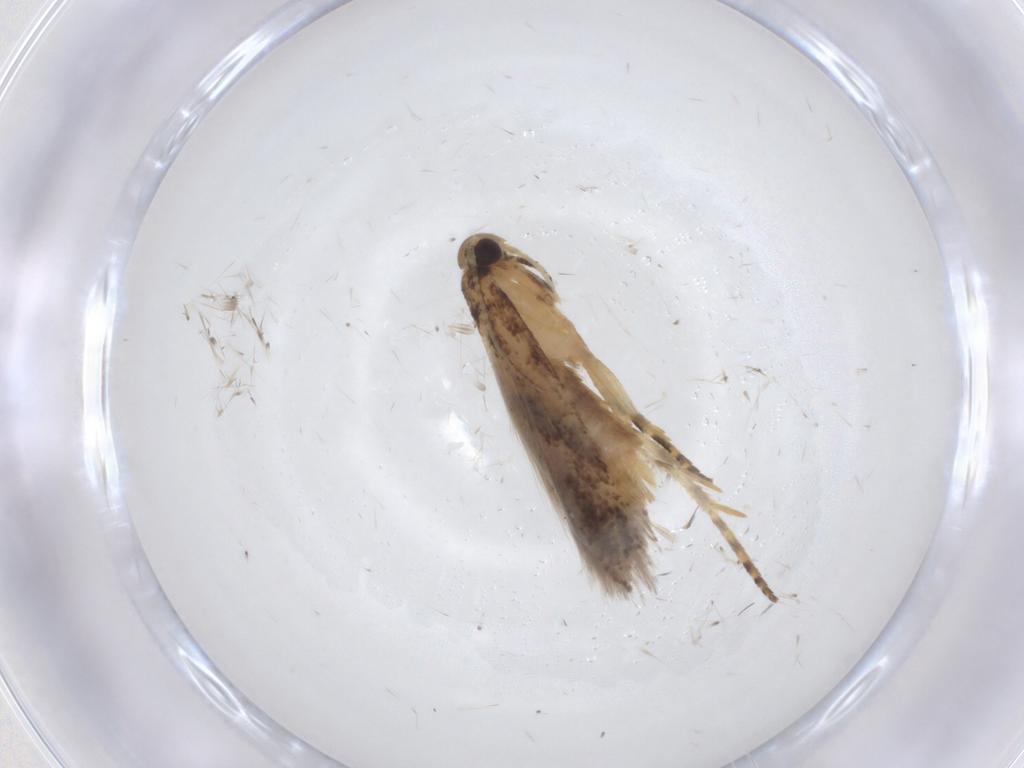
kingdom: Animalia
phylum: Arthropoda
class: Insecta
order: Lepidoptera
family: Gelechiidae
